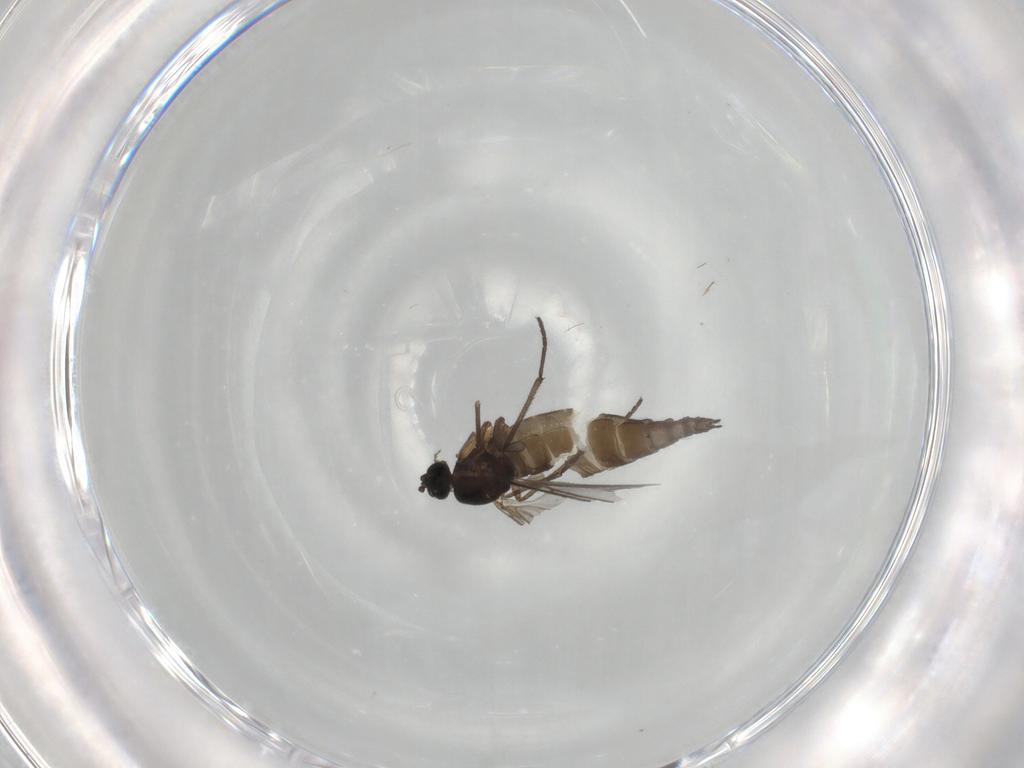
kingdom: Animalia
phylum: Arthropoda
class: Insecta
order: Diptera
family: Sciaridae
